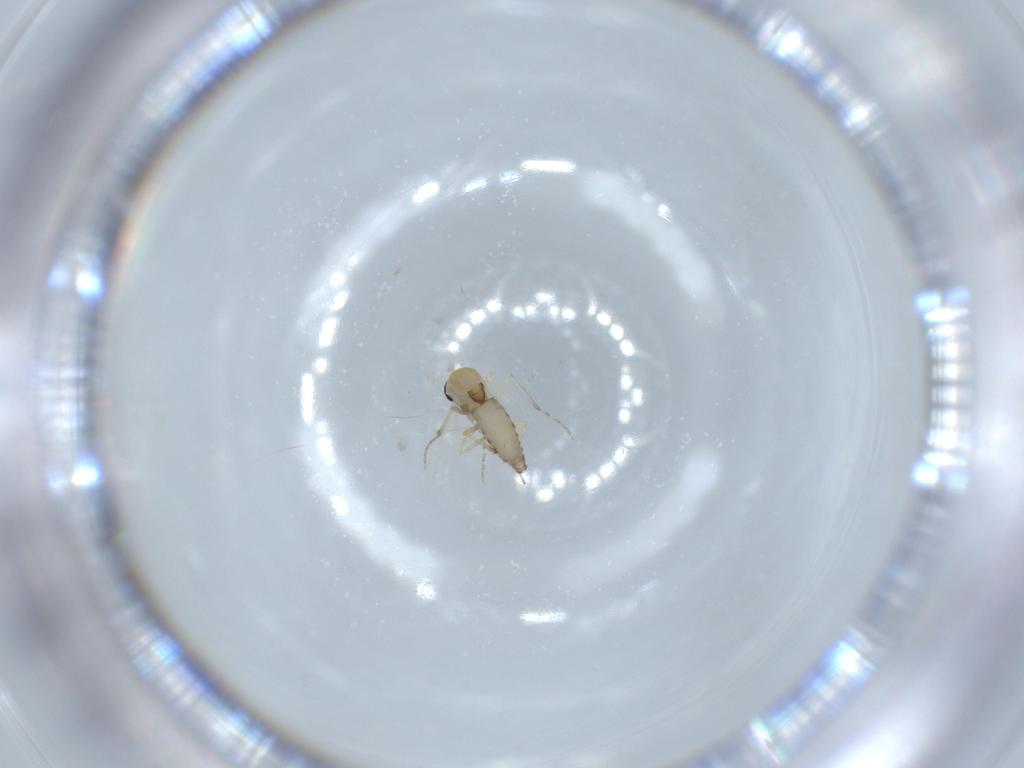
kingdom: Animalia
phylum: Arthropoda
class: Insecta
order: Diptera
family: Ceratopogonidae
